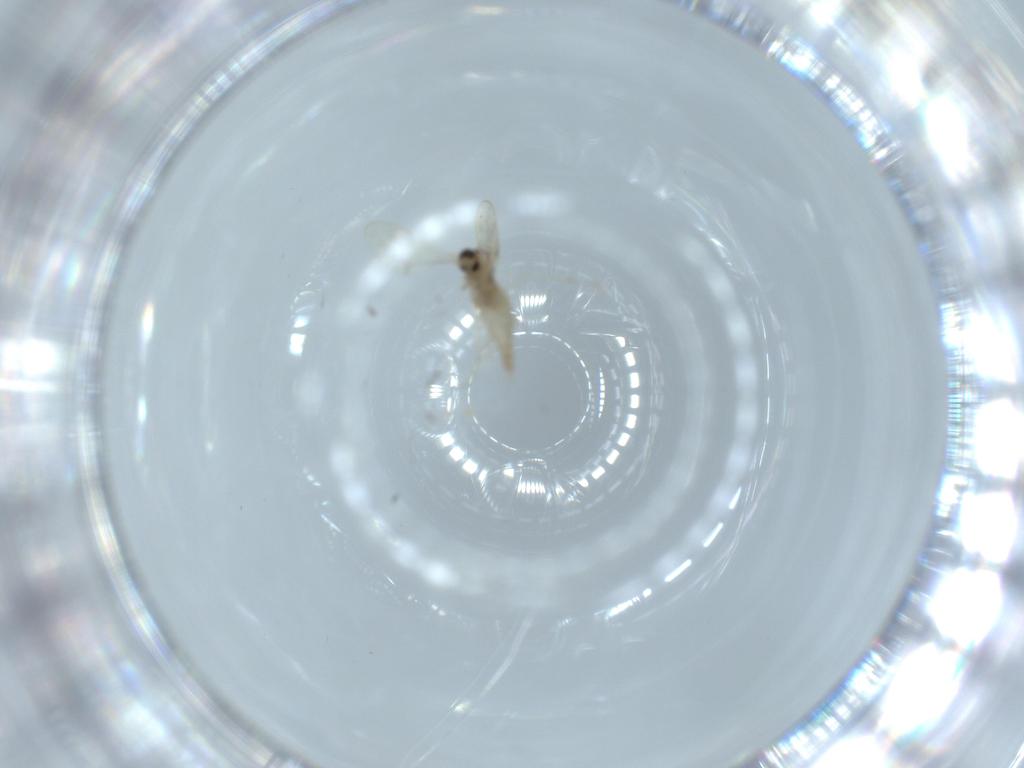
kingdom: Animalia
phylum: Arthropoda
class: Insecta
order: Diptera
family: Cecidomyiidae
